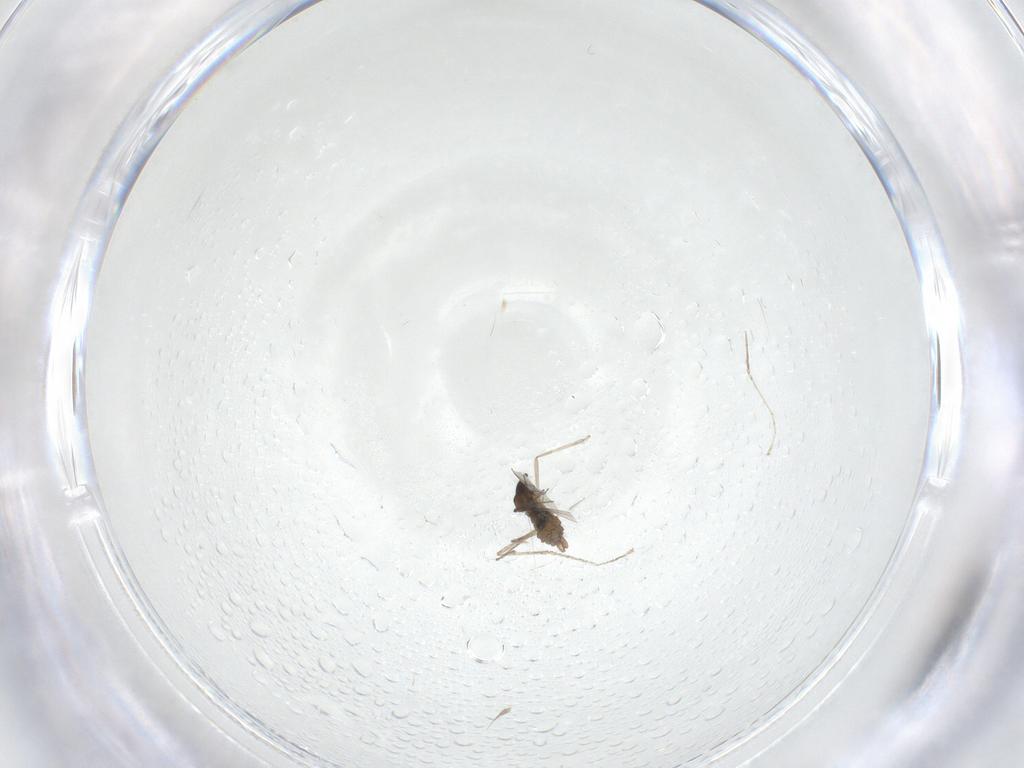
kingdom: Animalia
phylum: Arthropoda
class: Insecta
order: Diptera
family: Cecidomyiidae
